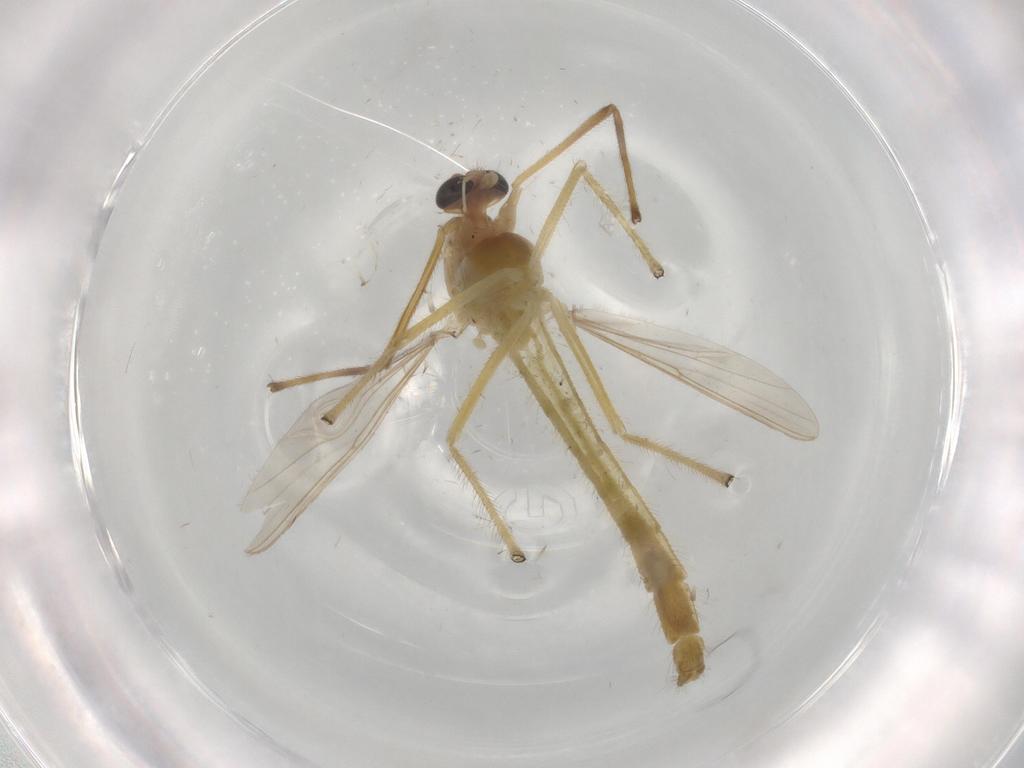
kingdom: Animalia
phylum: Arthropoda
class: Insecta
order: Diptera
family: Chironomidae
